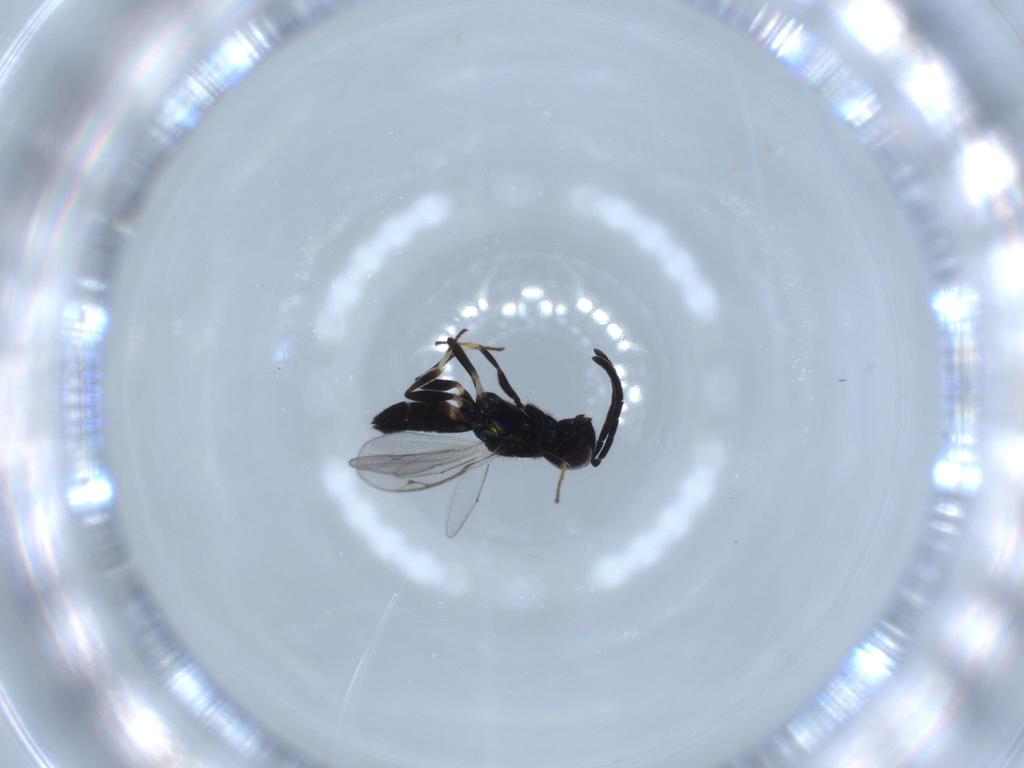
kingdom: Animalia
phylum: Arthropoda
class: Insecta
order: Hymenoptera
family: Eupelmidae
